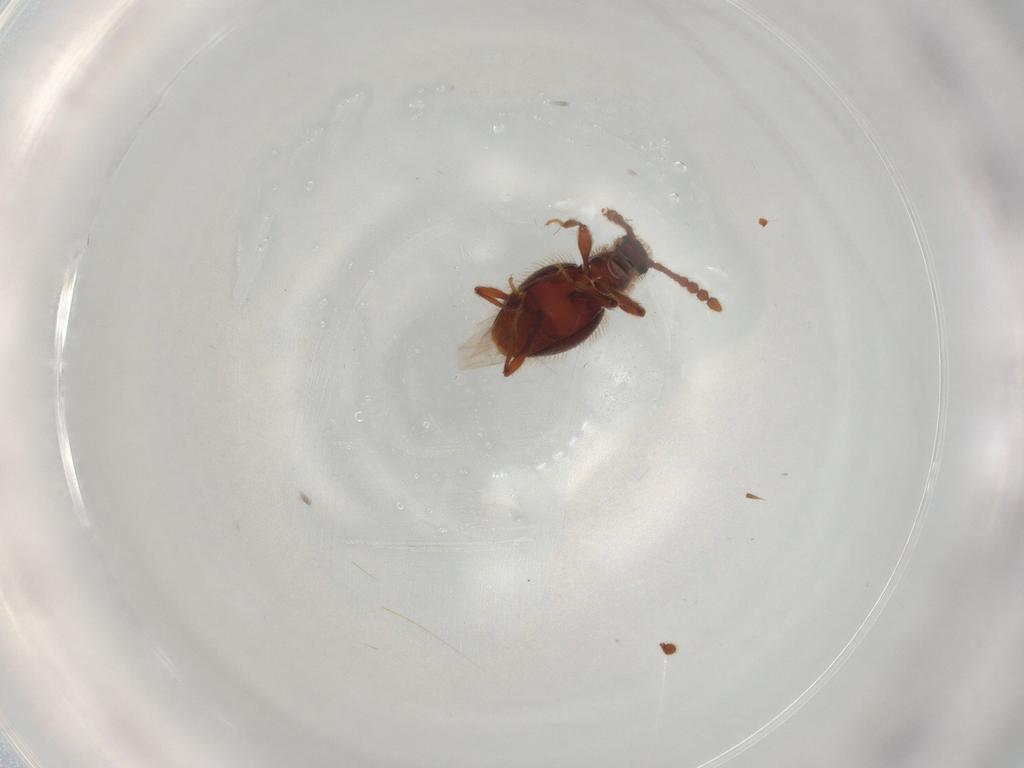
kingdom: Animalia
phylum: Arthropoda
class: Insecta
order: Coleoptera
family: Staphylinidae
